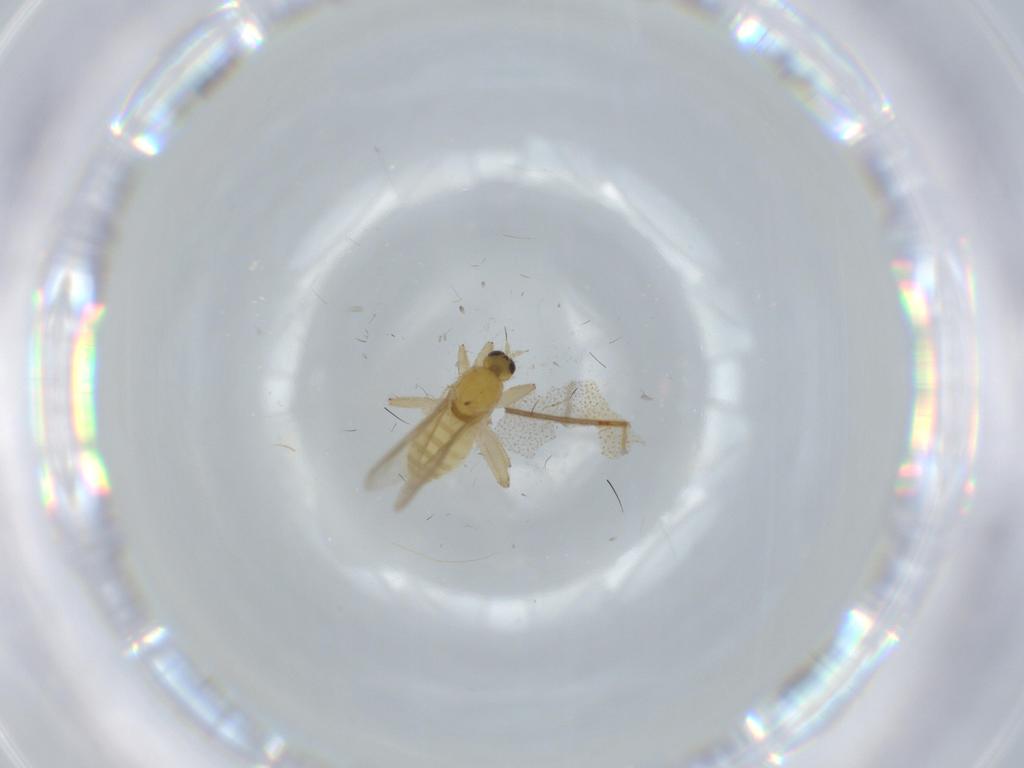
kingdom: Animalia
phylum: Arthropoda
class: Insecta
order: Diptera
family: Hybotidae
